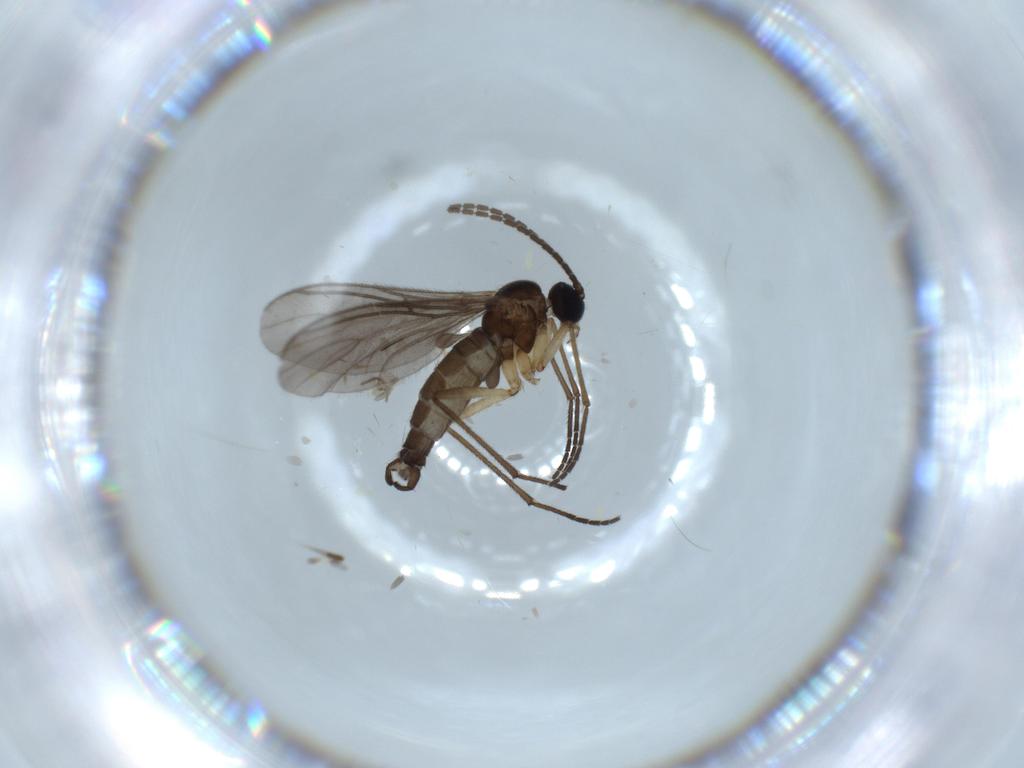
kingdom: Animalia
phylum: Arthropoda
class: Insecta
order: Diptera
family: Sciaridae
